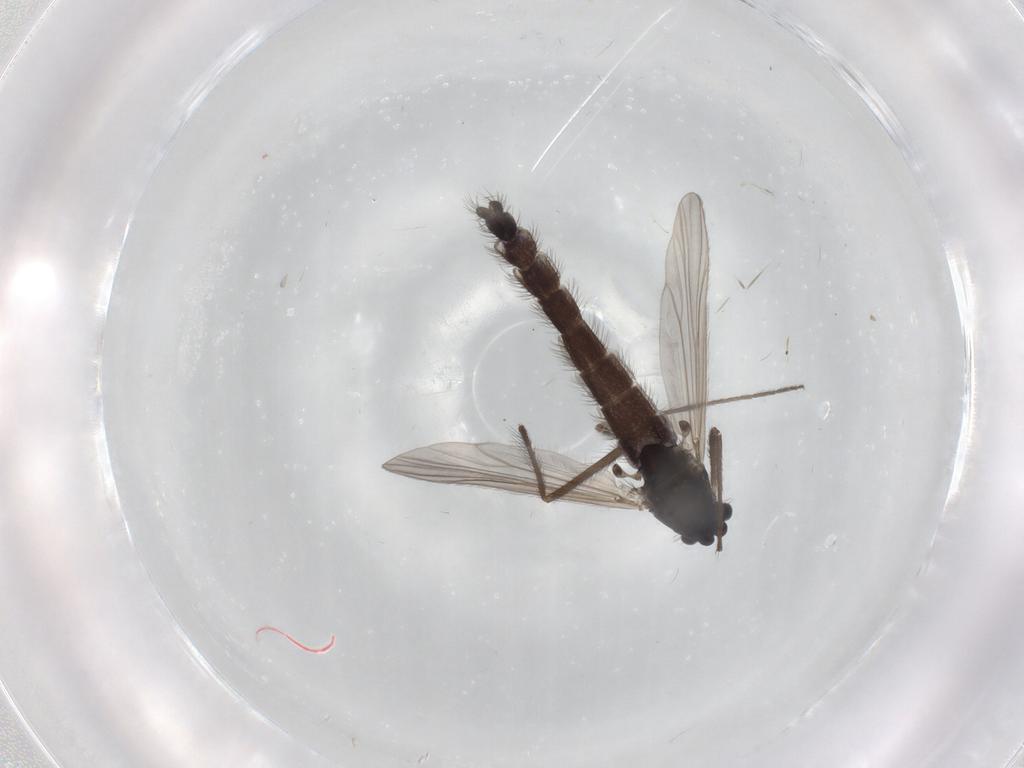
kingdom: Animalia
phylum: Arthropoda
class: Insecta
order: Diptera
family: Chironomidae
